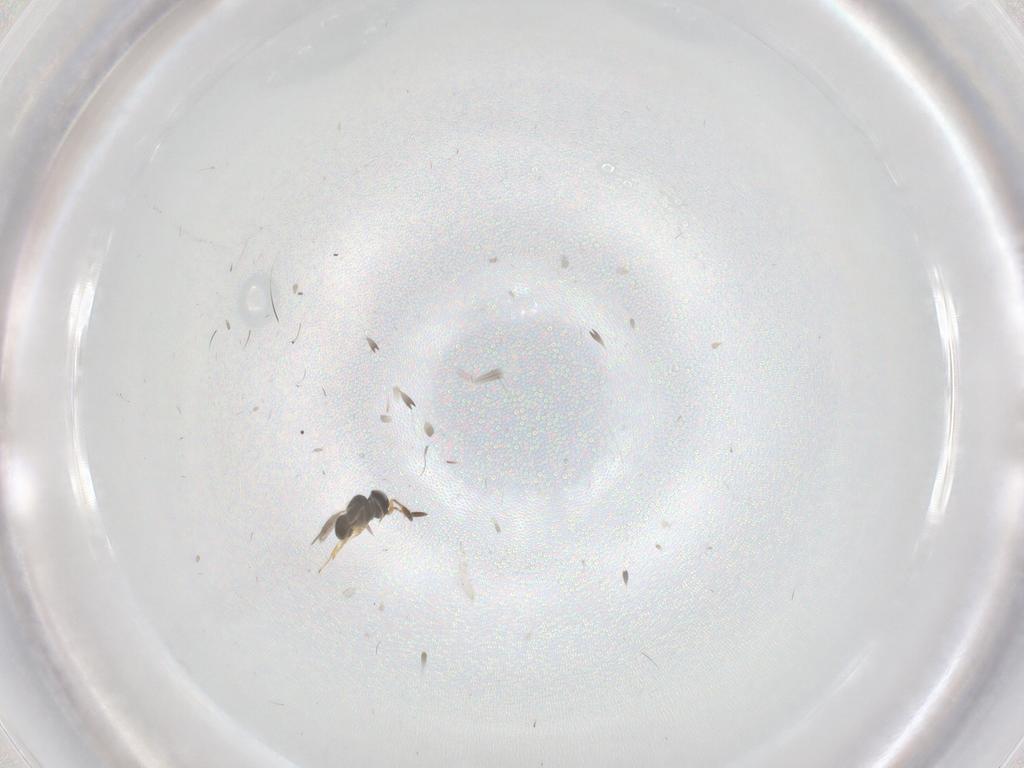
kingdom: Animalia
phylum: Arthropoda
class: Insecta
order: Hymenoptera
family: Scelionidae
